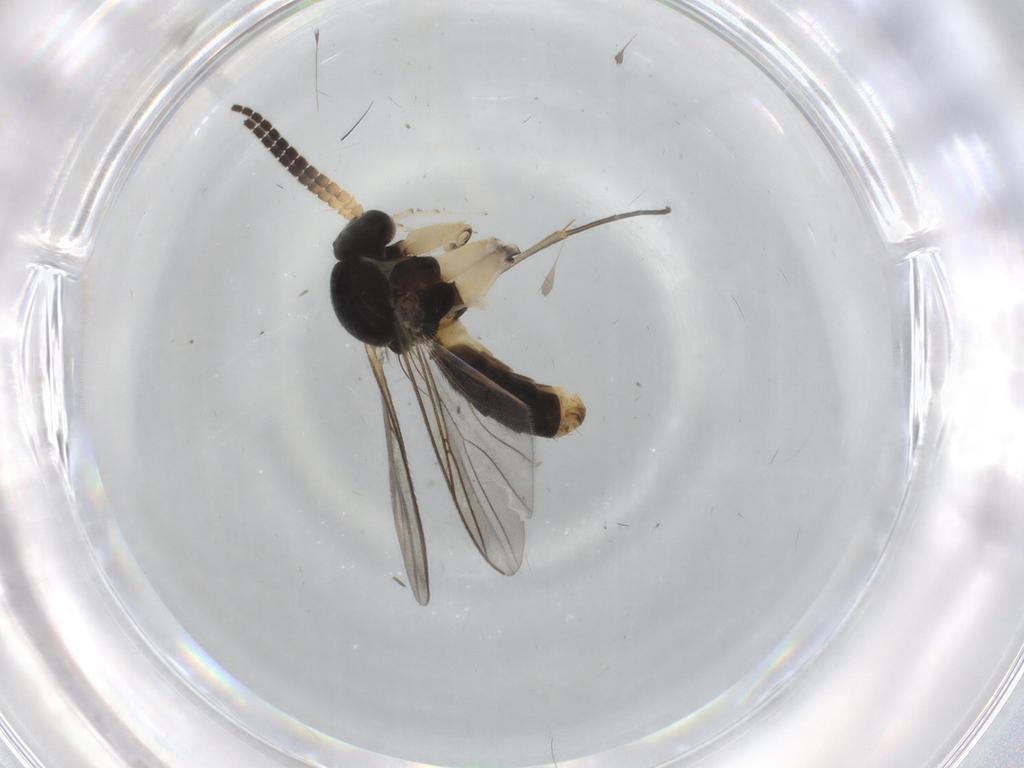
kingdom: Animalia
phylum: Arthropoda
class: Insecta
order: Diptera
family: Mycetophilidae
